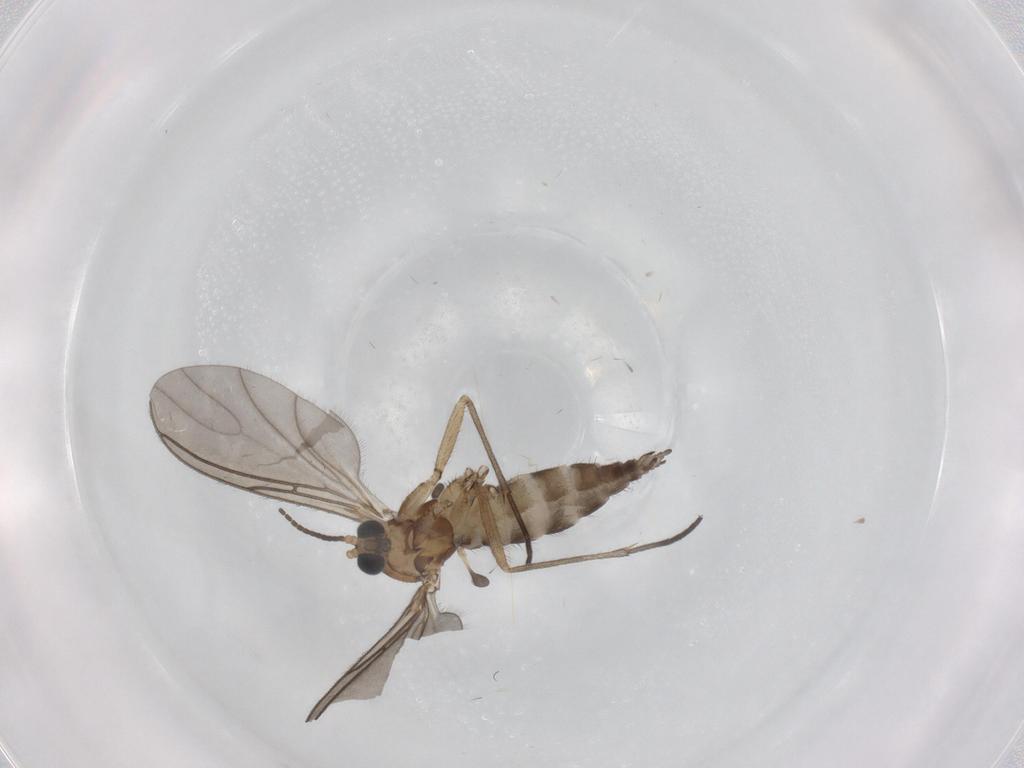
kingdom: Animalia
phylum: Arthropoda
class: Insecta
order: Diptera
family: Sciaridae
